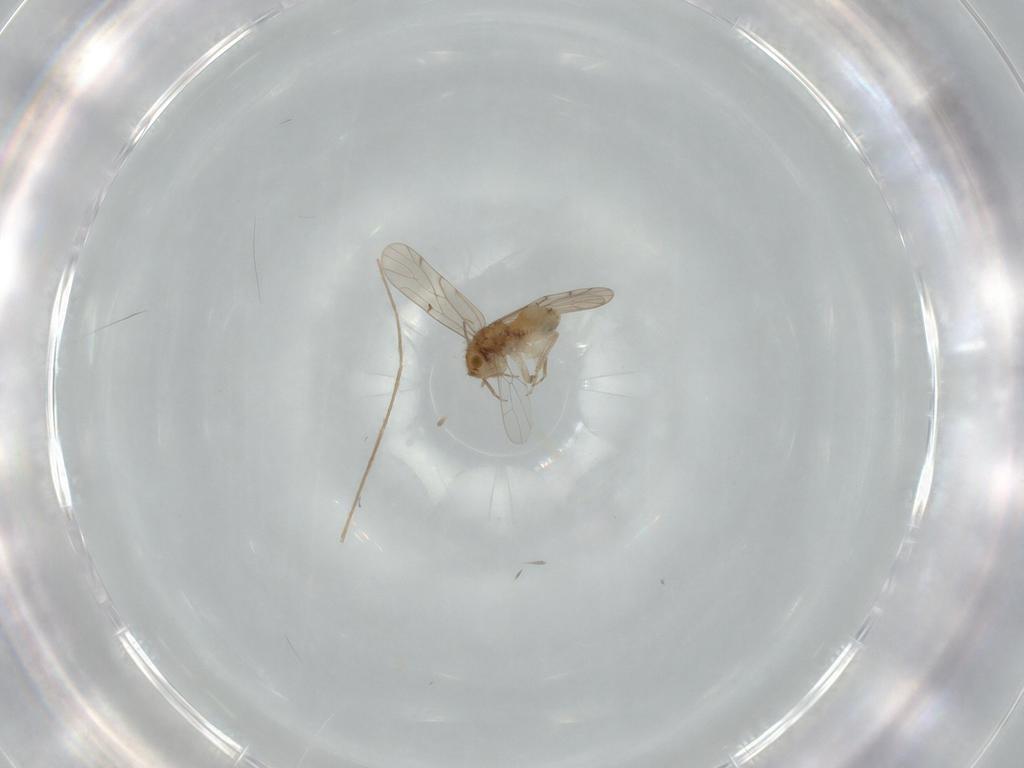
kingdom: Animalia
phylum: Arthropoda
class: Insecta
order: Psocodea
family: Ectopsocidae
